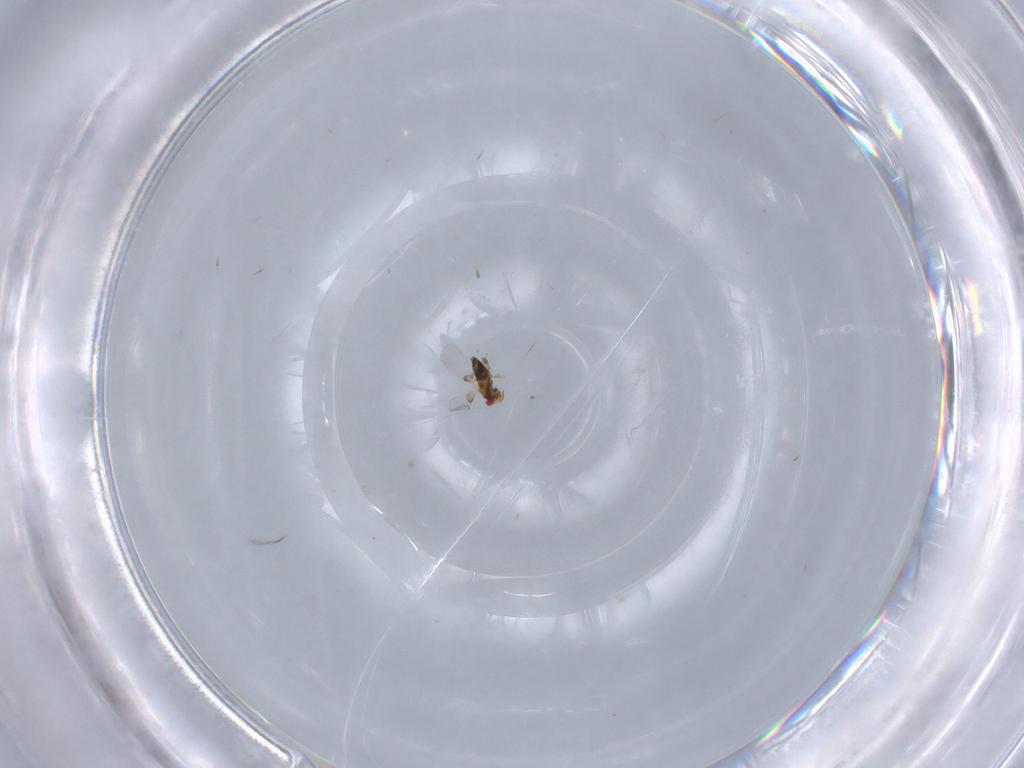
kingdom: Animalia
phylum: Arthropoda
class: Insecta
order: Hymenoptera
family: Trichogrammatidae
